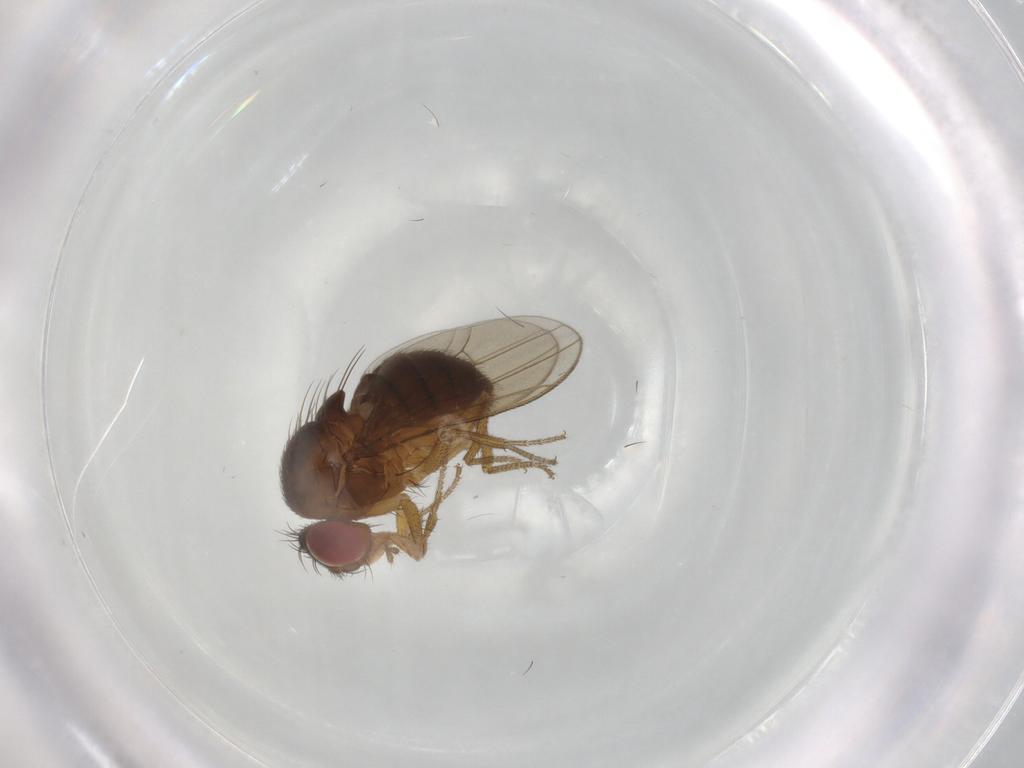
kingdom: Animalia
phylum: Arthropoda
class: Insecta
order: Diptera
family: Drosophilidae
